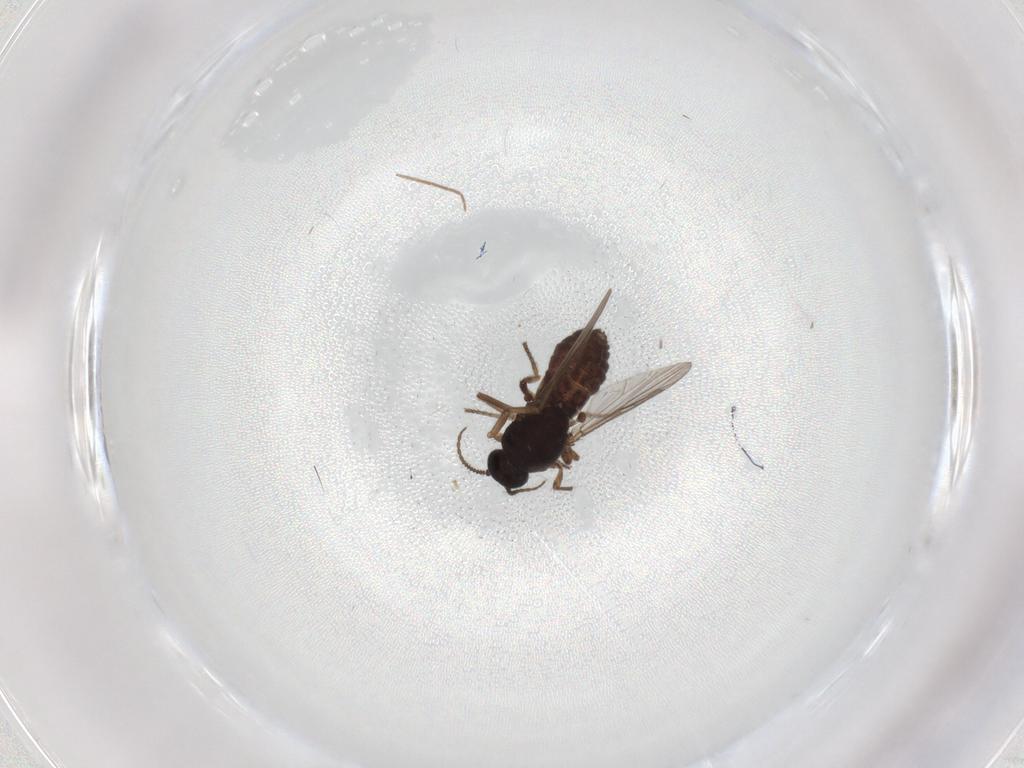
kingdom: Animalia
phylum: Arthropoda
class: Insecta
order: Diptera
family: Ceratopogonidae
